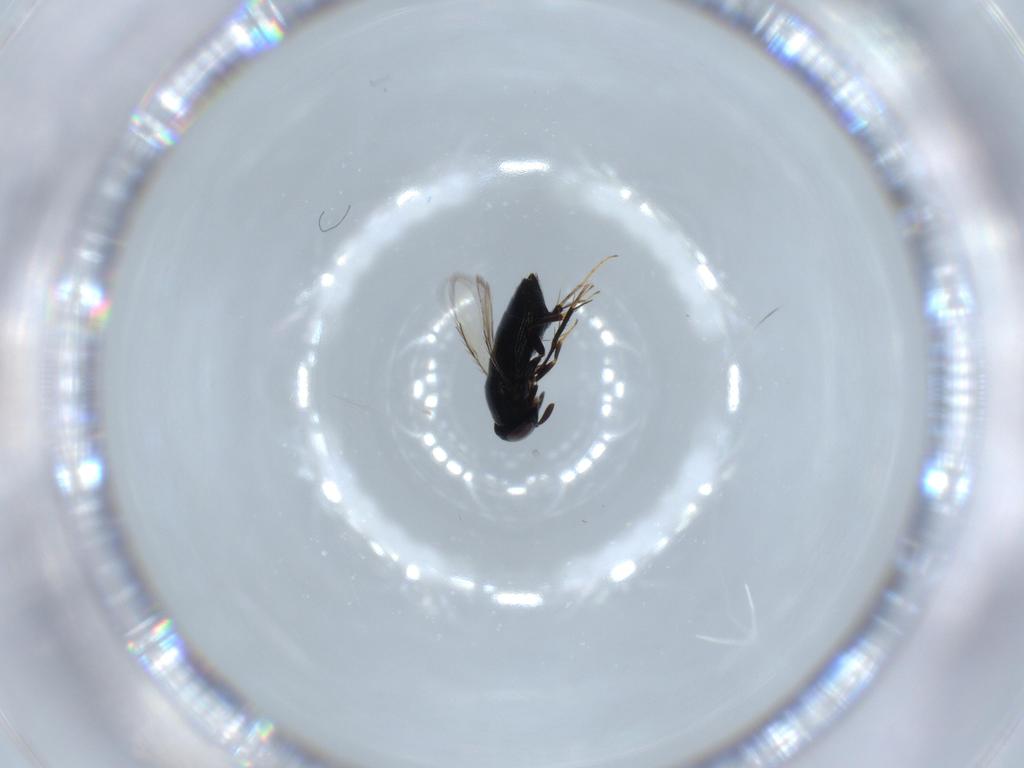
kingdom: Animalia
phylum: Arthropoda
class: Insecta
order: Hymenoptera
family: Signiphoridae
